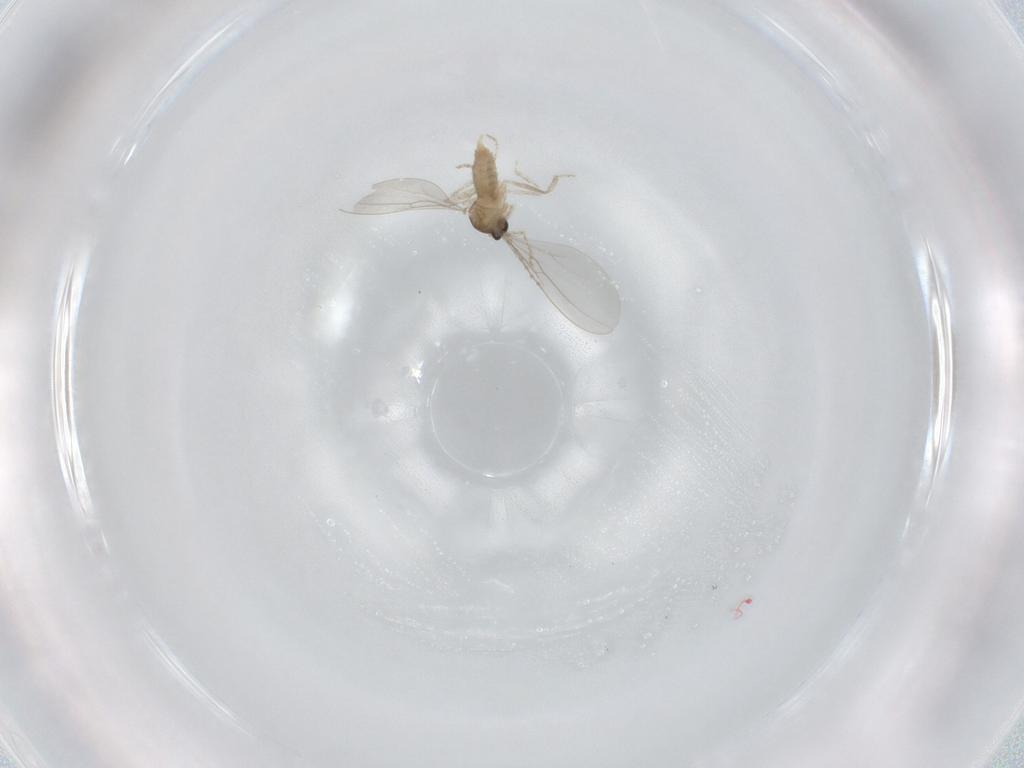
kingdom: Animalia
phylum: Arthropoda
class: Insecta
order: Diptera
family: Cecidomyiidae
